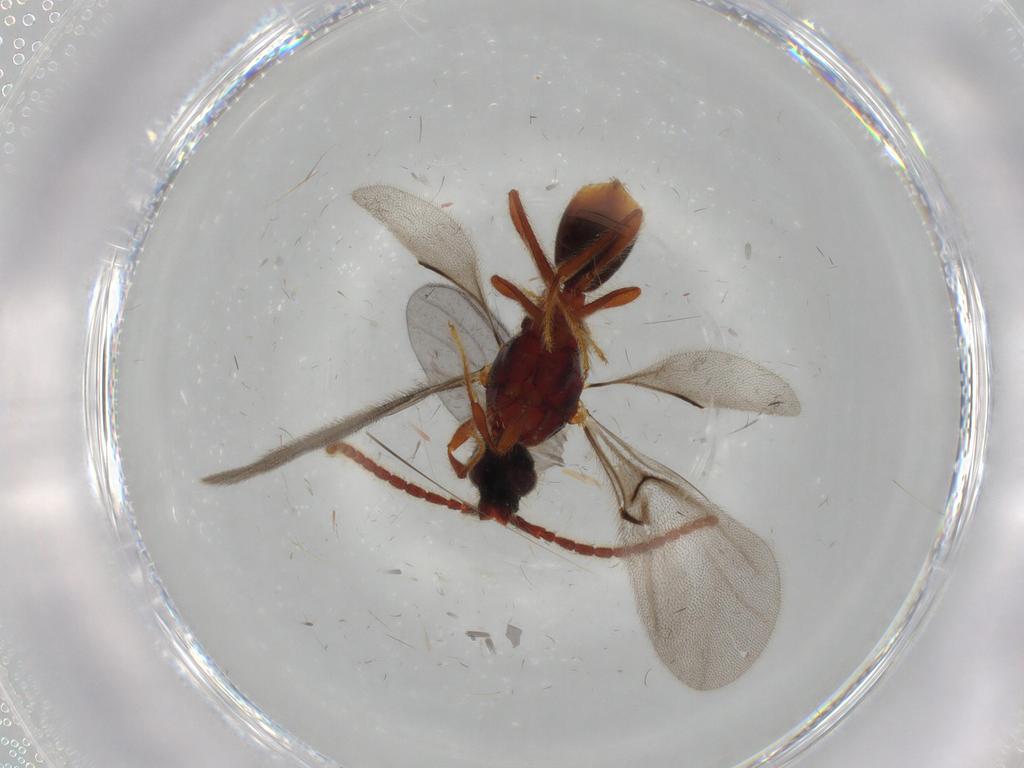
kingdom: Animalia
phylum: Arthropoda
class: Insecta
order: Hymenoptera
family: Diapriidae
